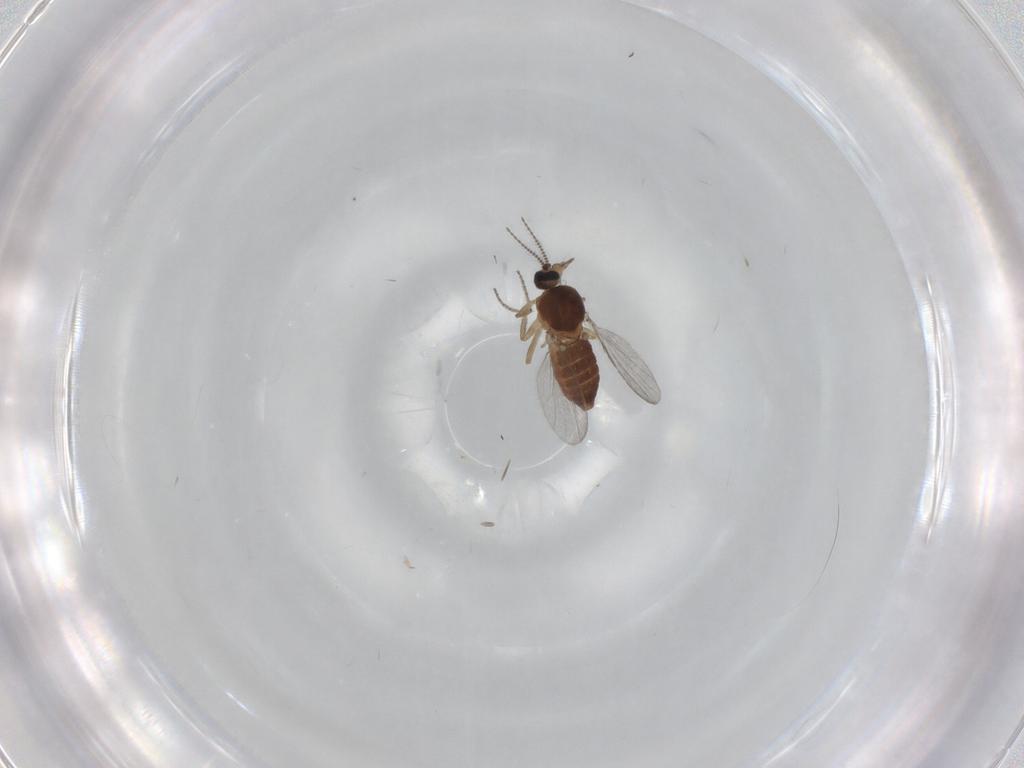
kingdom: Animalia
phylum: Arthropoda
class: Insecta
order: Diptera
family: Ceratopogonidae
